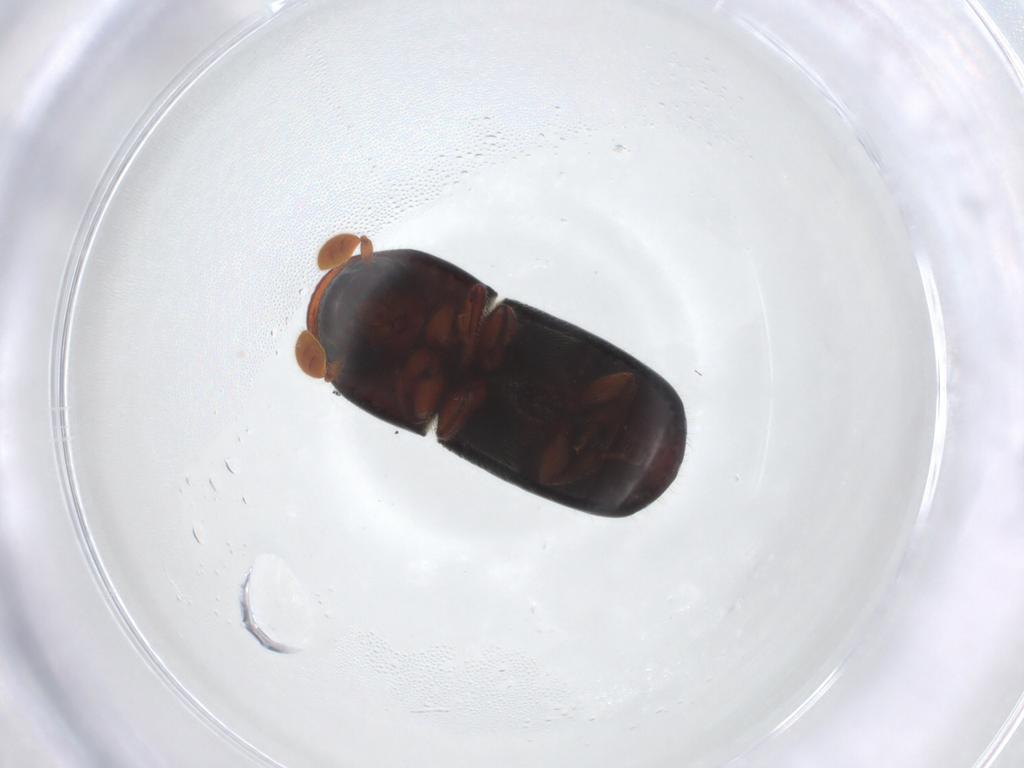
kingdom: Animalia
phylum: Arthropoda
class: Insecta
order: Coleoptera
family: Curculionidae
